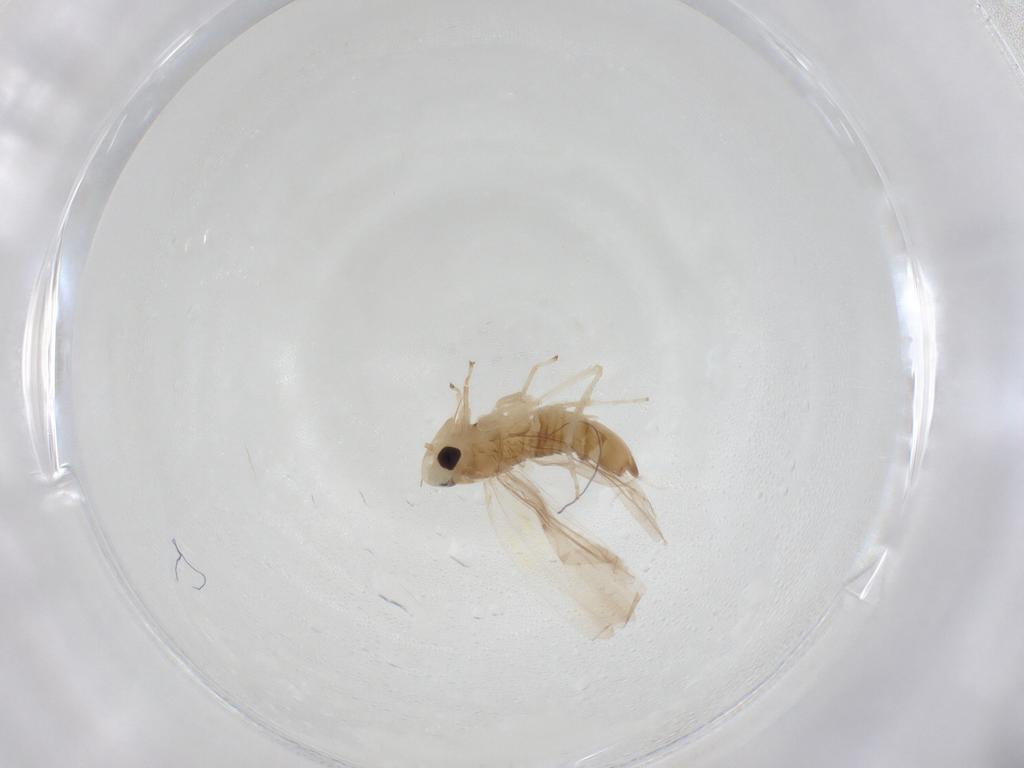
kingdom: Animalia
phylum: Arthropoda
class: Insecta
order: Hemiptera
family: Cicadellidae
